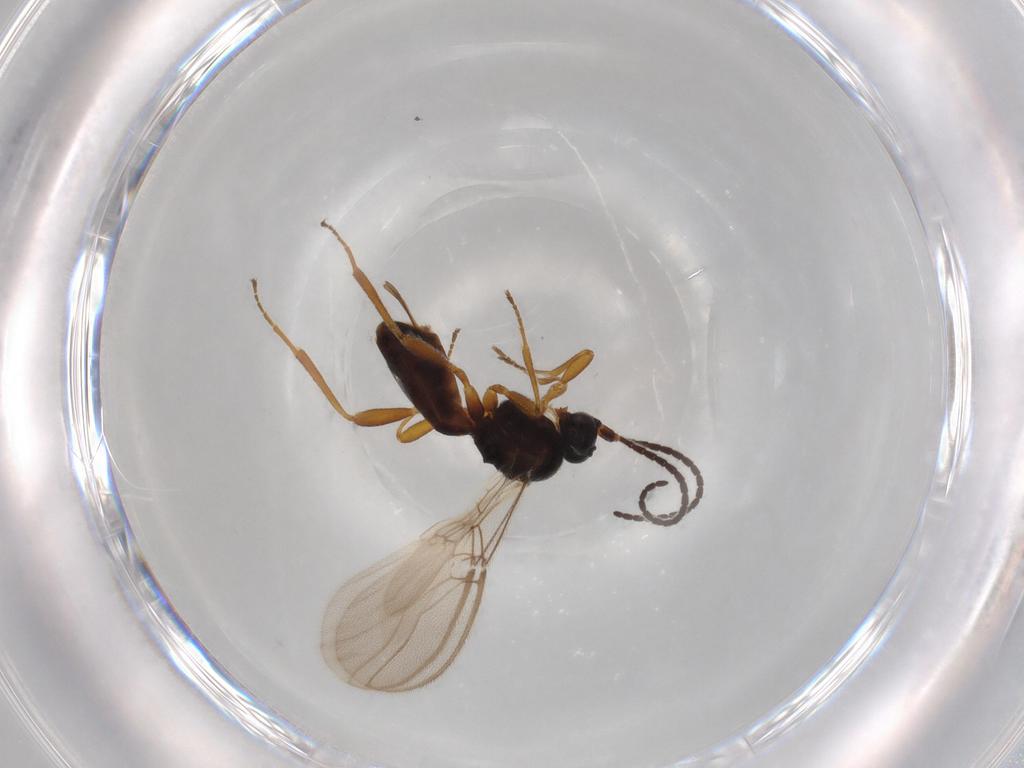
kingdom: Animalia
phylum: Arthropoda
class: Insecta
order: Hymenoptera
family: Braconidae
